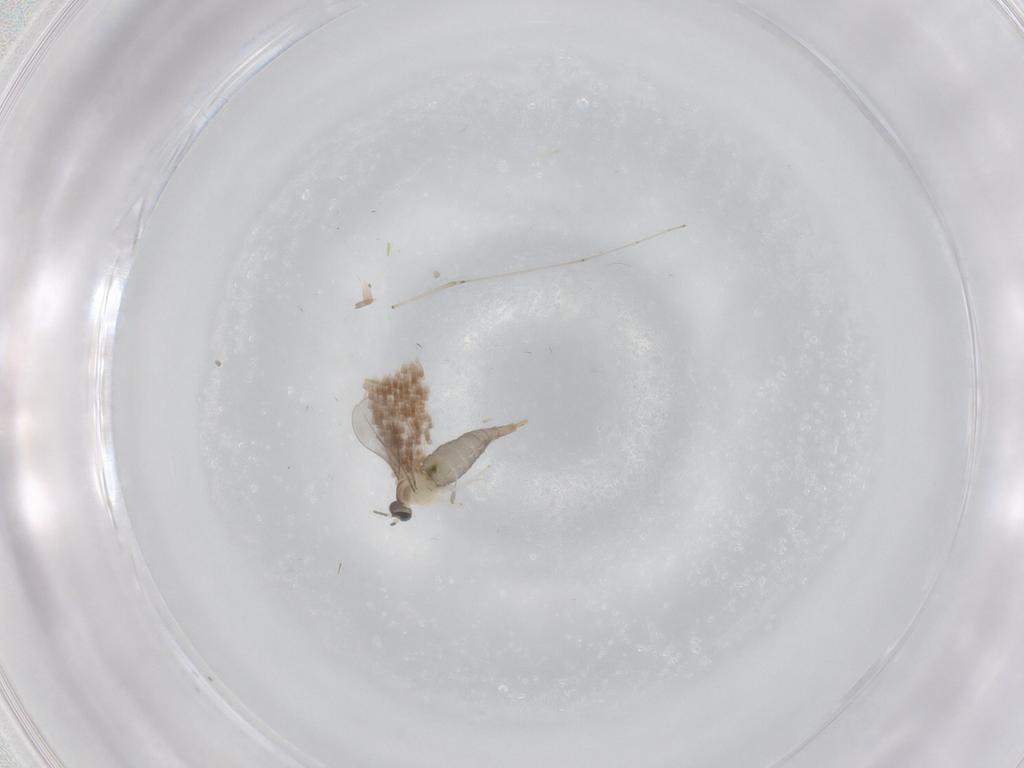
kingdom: Animalia
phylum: Arthropoda
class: Insecta
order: Diptera
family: Cecidomyiidae
